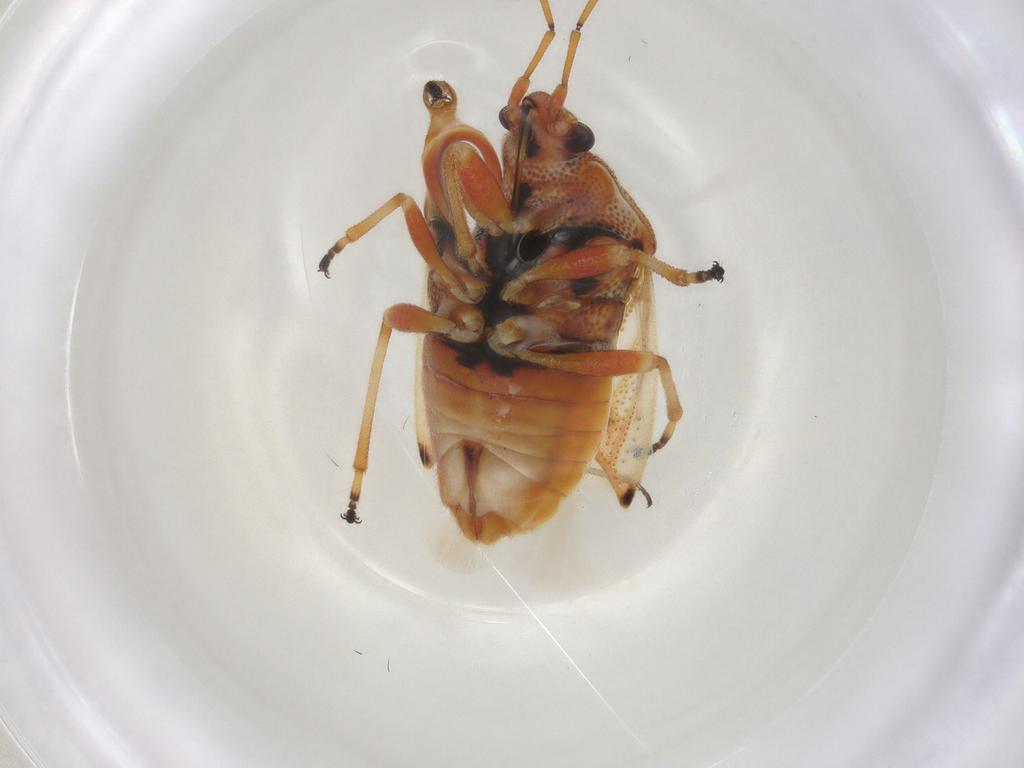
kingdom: Animalia
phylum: Arthropoda
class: Insecta
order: Hemiptera
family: Lygaeidae
